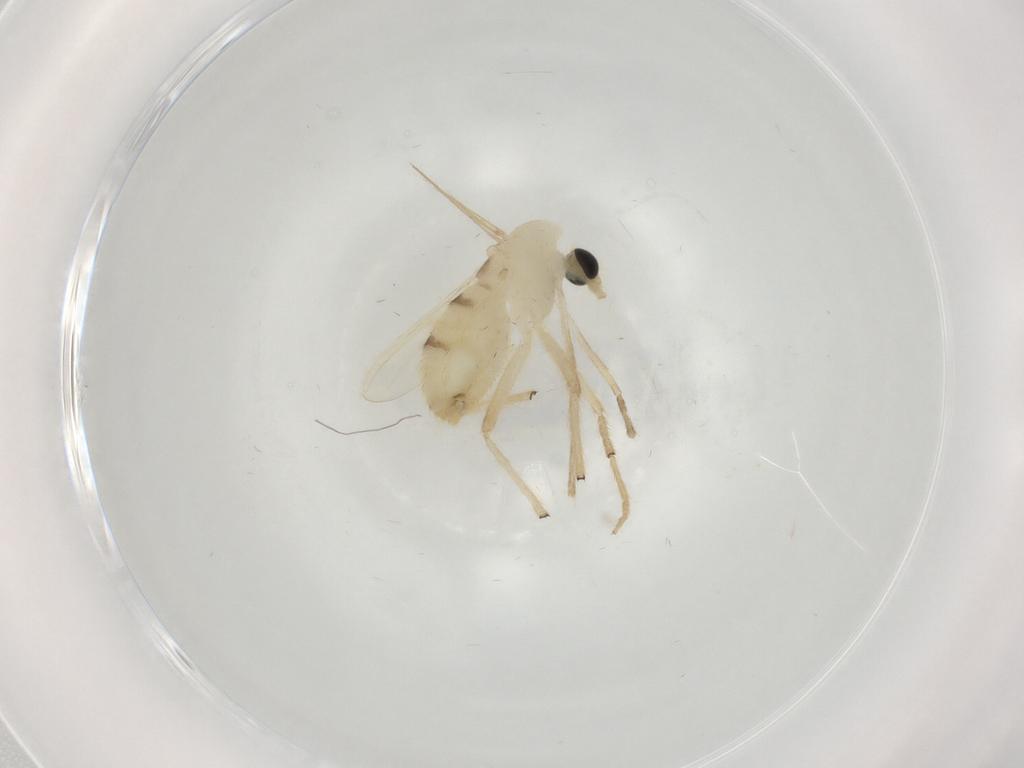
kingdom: Animalia
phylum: Arthropoda
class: Insecta
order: Diptera
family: Chironomidae
